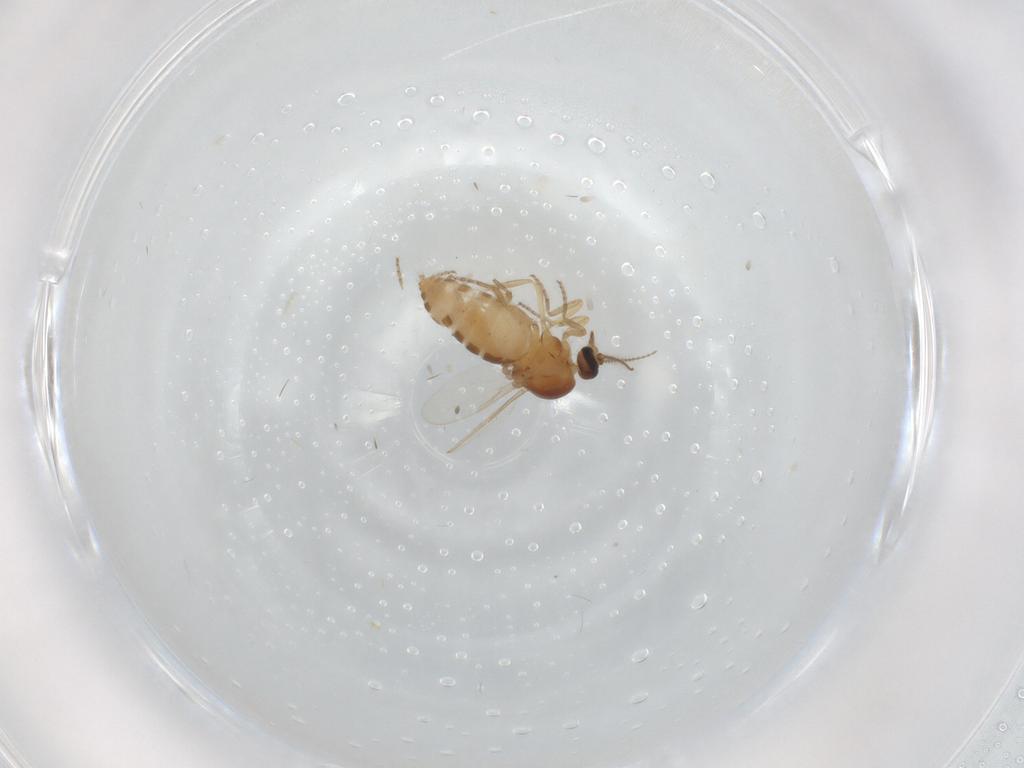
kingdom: Animalia
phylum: Arthropoda
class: Insecta
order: Diptera
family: Ceratopogonidae
